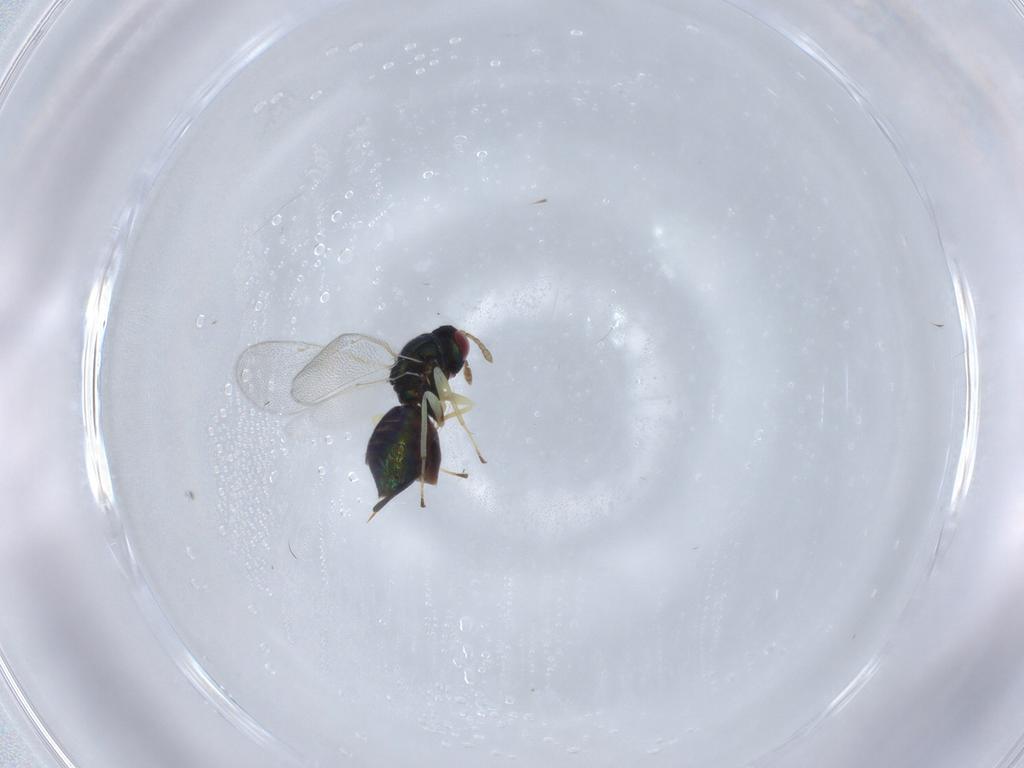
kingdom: Animalia
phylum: Arthropoda
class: Insecta
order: Hymenoptera
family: Eulophidae
